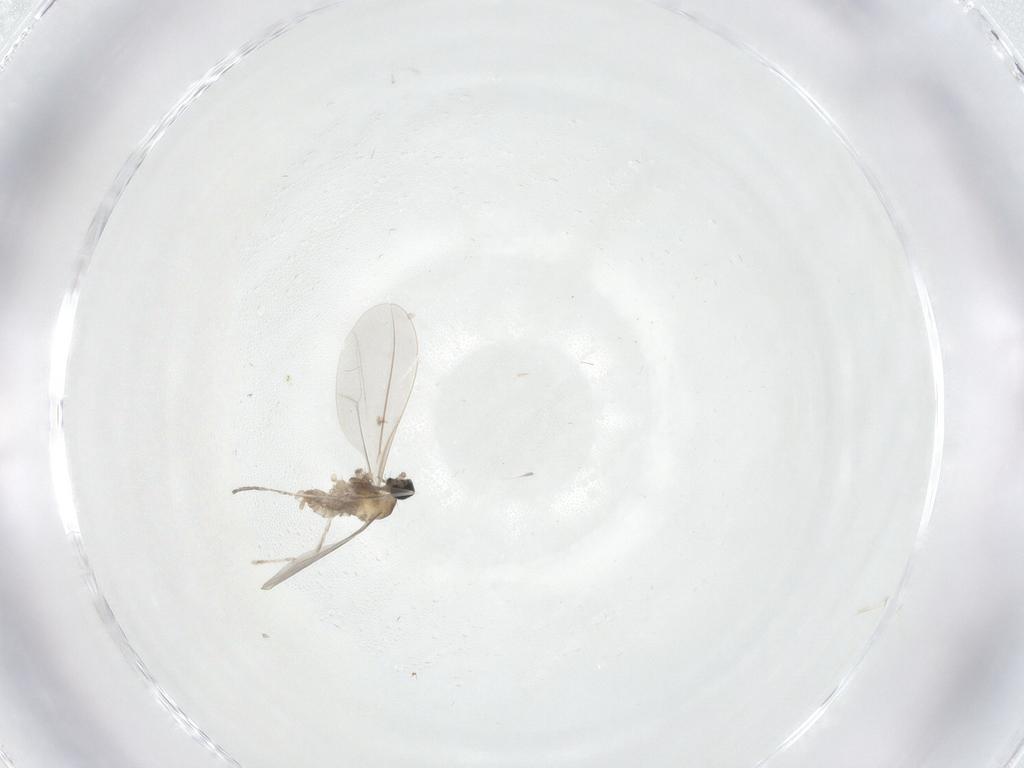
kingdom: Animalia
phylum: Arthropoda
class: Insecta
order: Diptera
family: Cecidomyiidae
